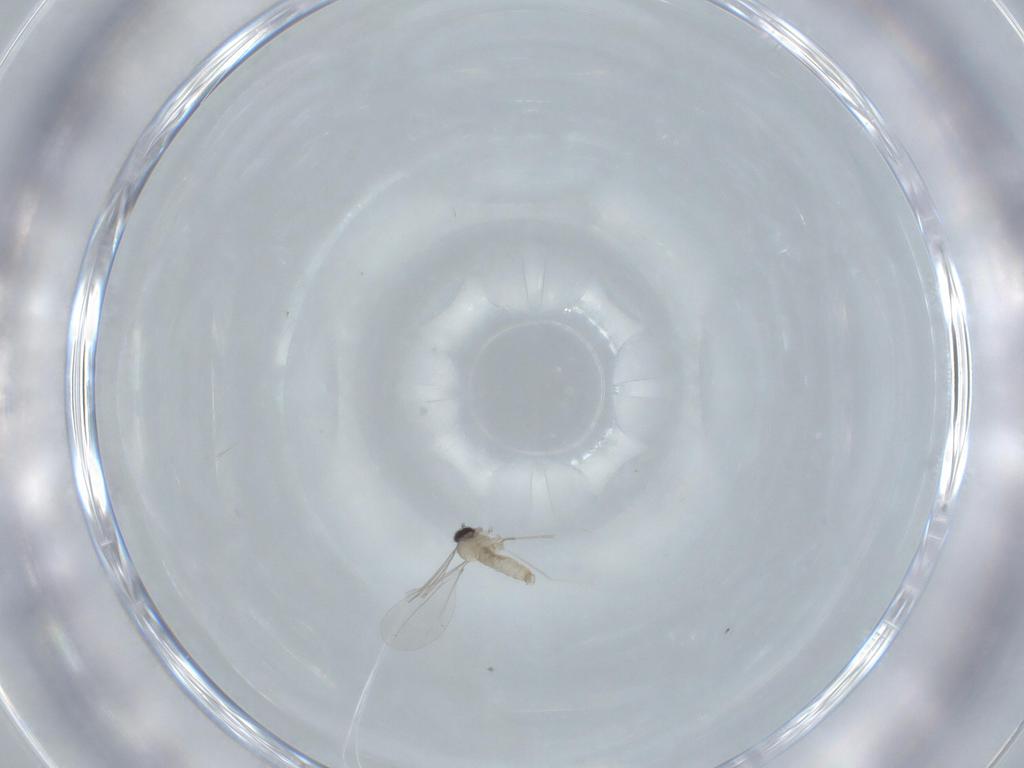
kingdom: Animalia
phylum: Arthropoda
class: Insecta
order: Diptera
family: Cecidomyiidae
